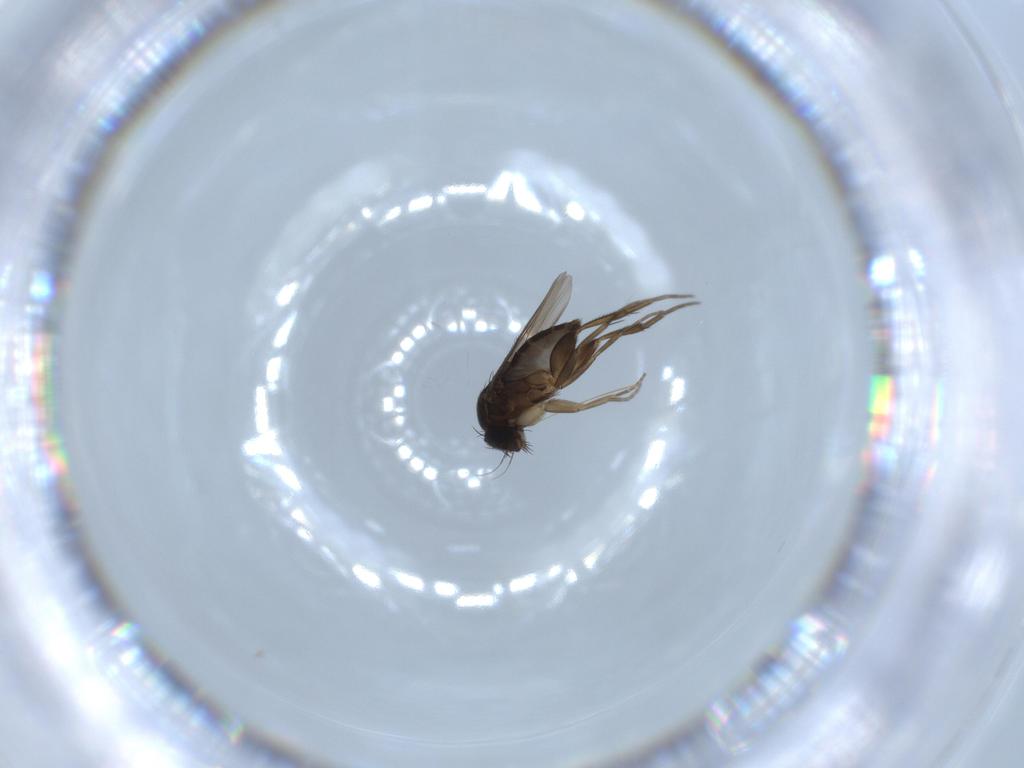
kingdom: Animalia
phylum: Arthropoda
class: Insecta
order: Diptera
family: Phoridae
